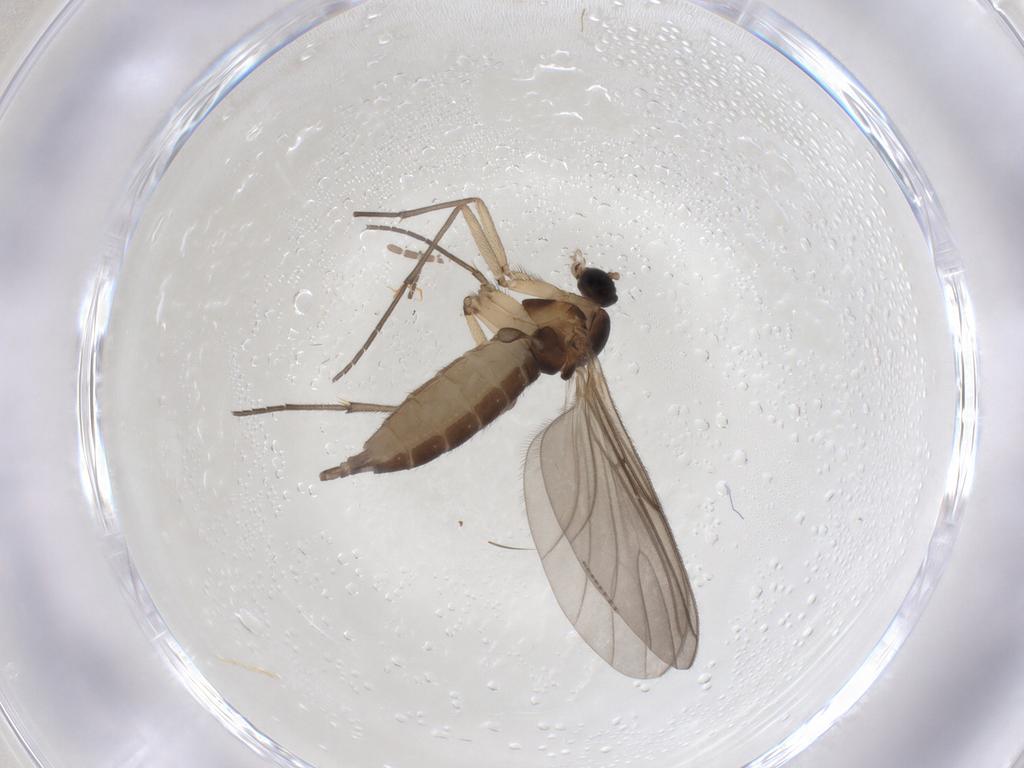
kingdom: Animalia
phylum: Arthropoda
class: Insecta
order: Diptera
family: Sciaridae
